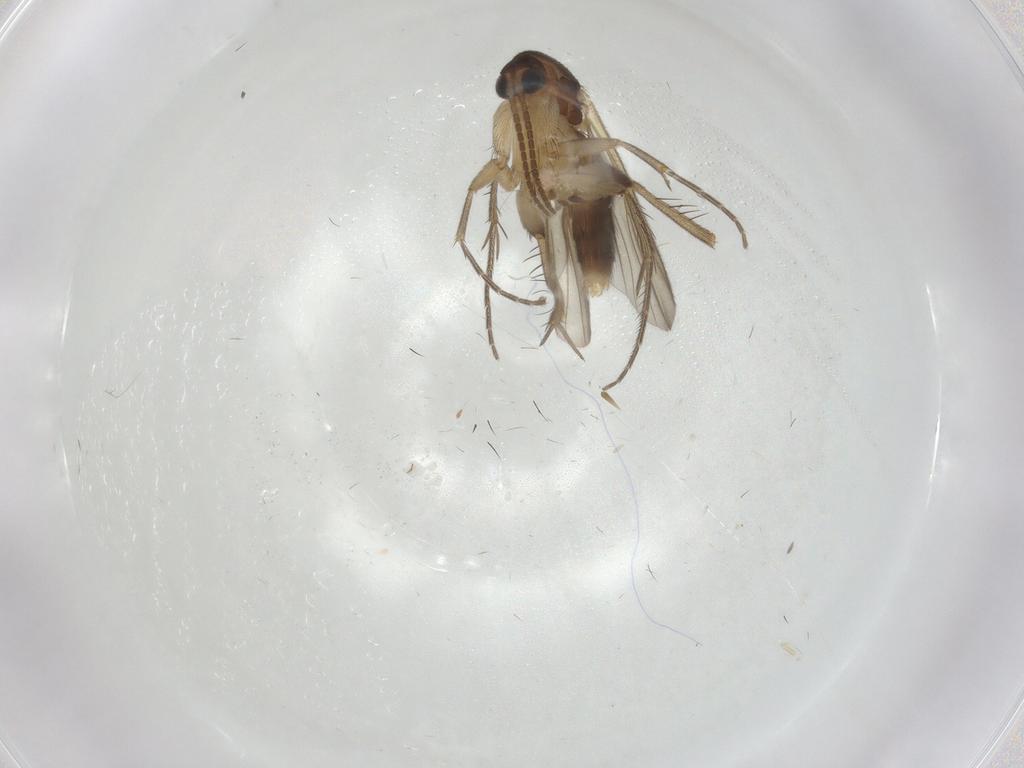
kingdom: Animalia
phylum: Arthropoda
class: Insecta
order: Diptera
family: Mycetophilidae
